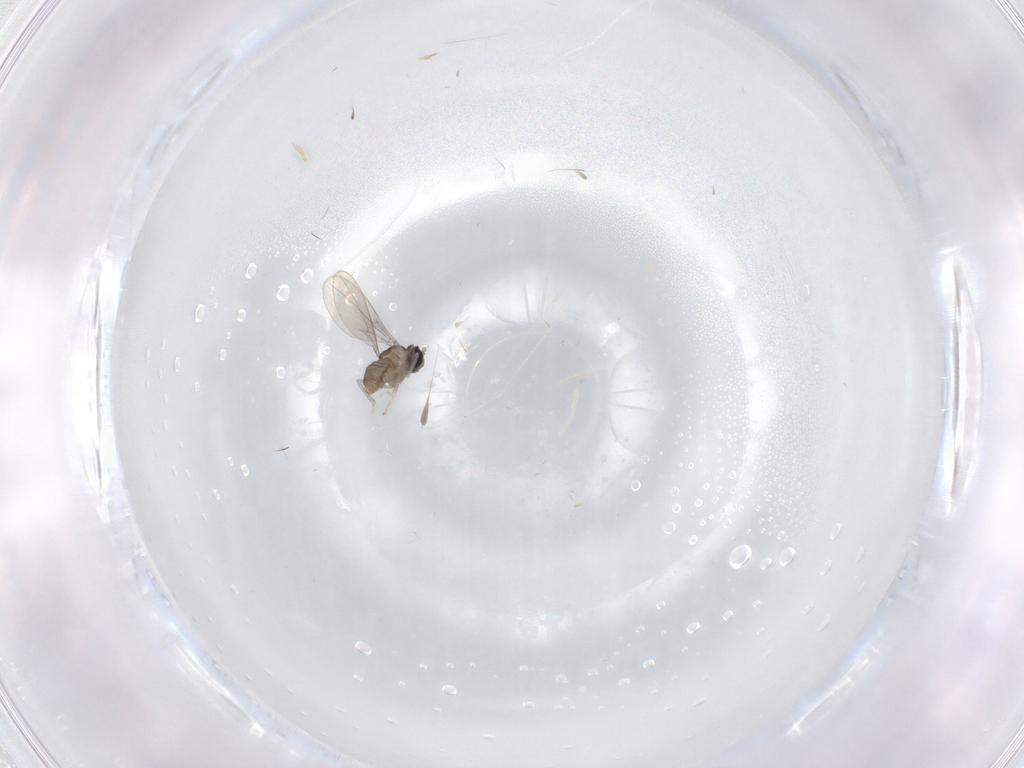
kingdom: Animalia
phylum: Arthropoda
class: Insecta
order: Diptera
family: Cecidomyiidae
